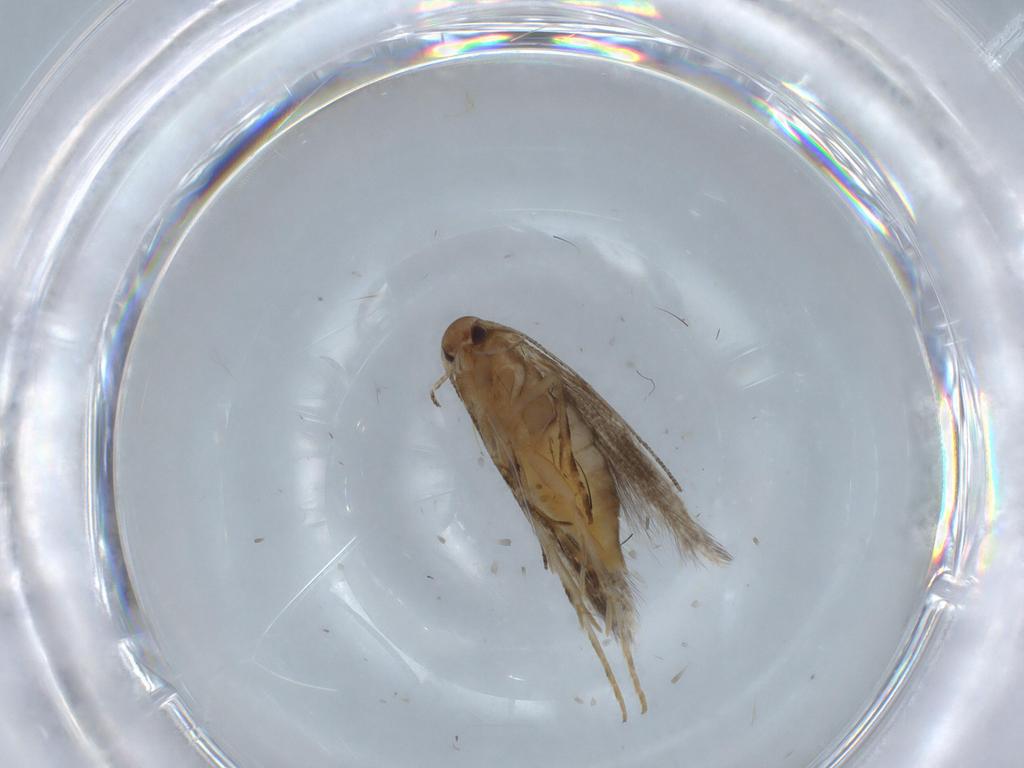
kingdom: Animalia
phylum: Arthropoda
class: Insecta
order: Lepidoptera
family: Elachistidae
